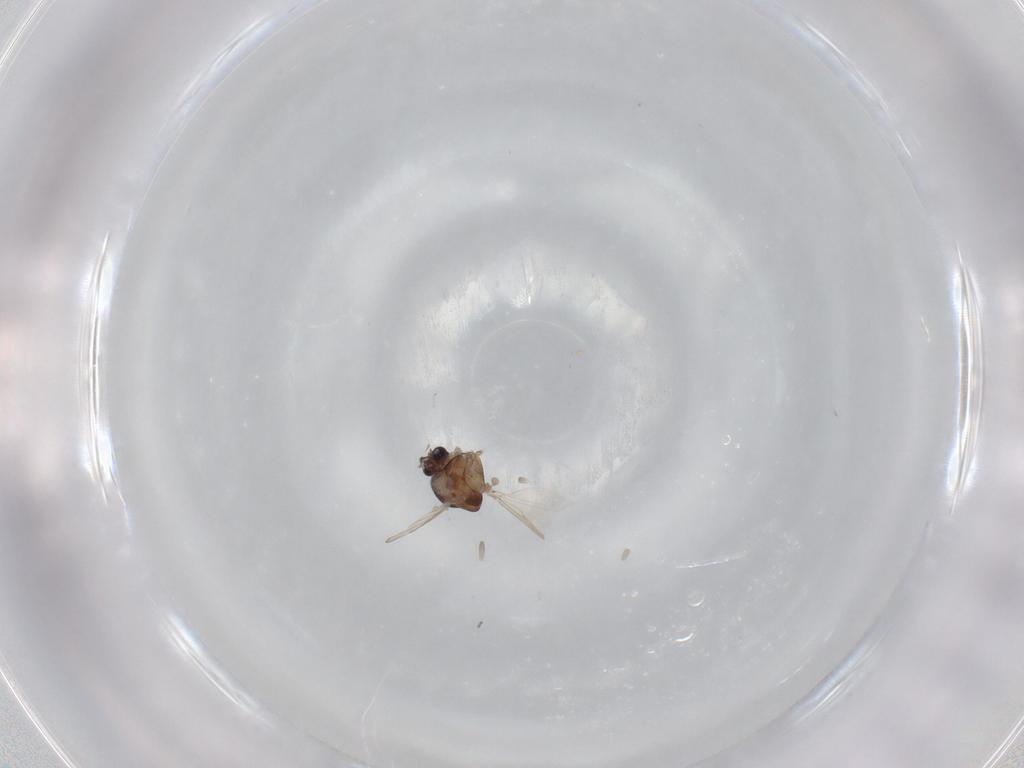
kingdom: Animalia
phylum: Arthropoda
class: Insecta
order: Diptera
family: Ceratopogonidae
